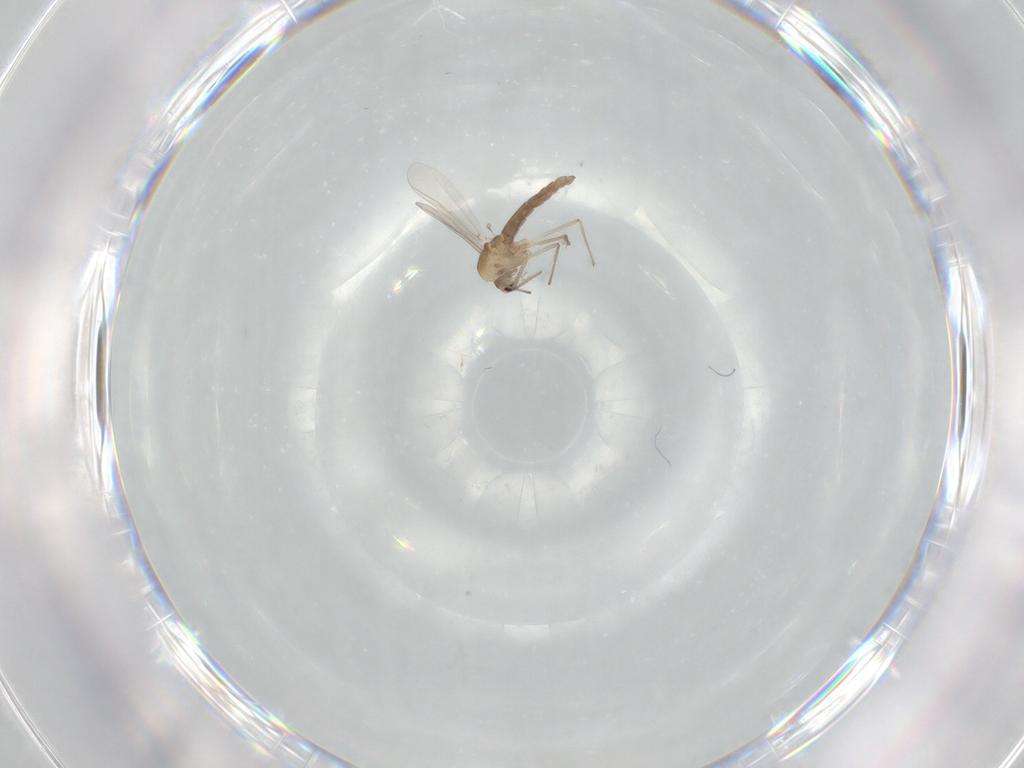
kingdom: Animalia
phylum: Arthropoda
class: Insecta
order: Diptera
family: Chironomidae
